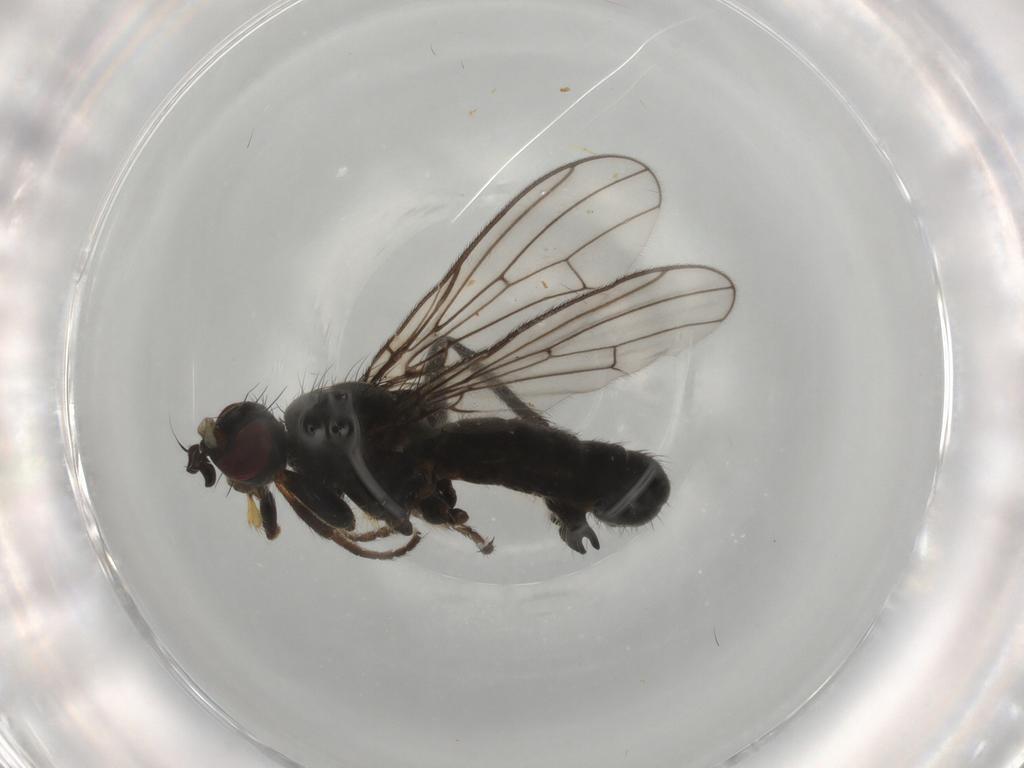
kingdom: Animalia
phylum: Arthropoda
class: Insecta
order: Diptera
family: Scathophagidae
